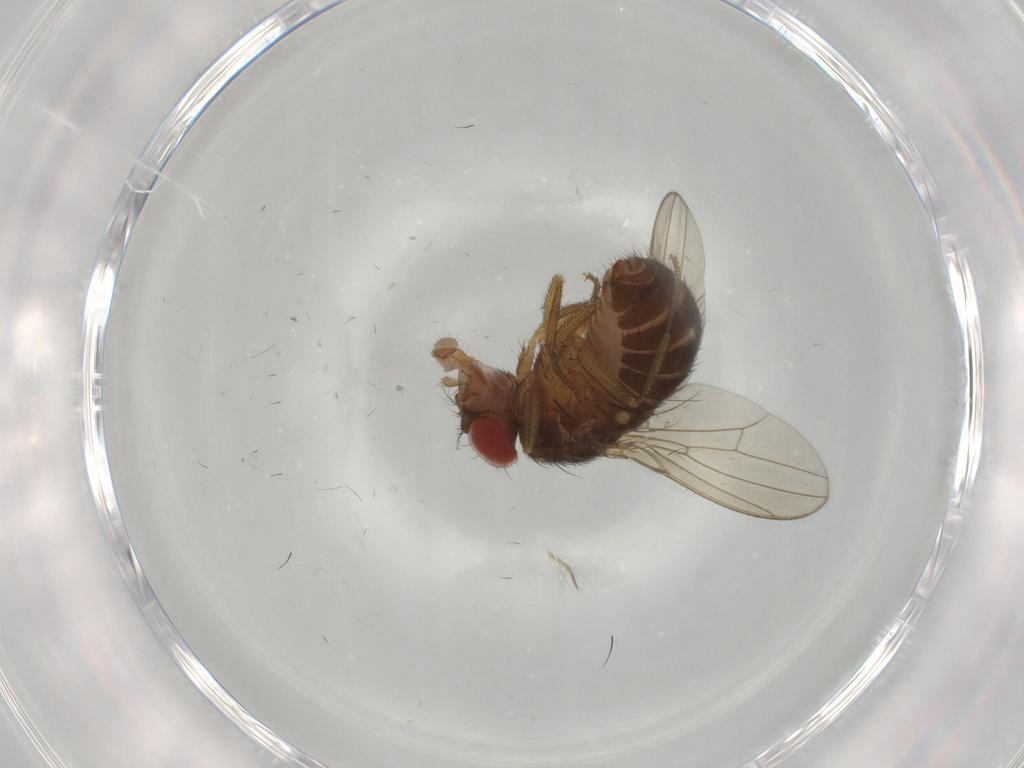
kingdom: Animalia
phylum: Arthropoda
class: Insecta
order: Diptera
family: Drosophilidae
